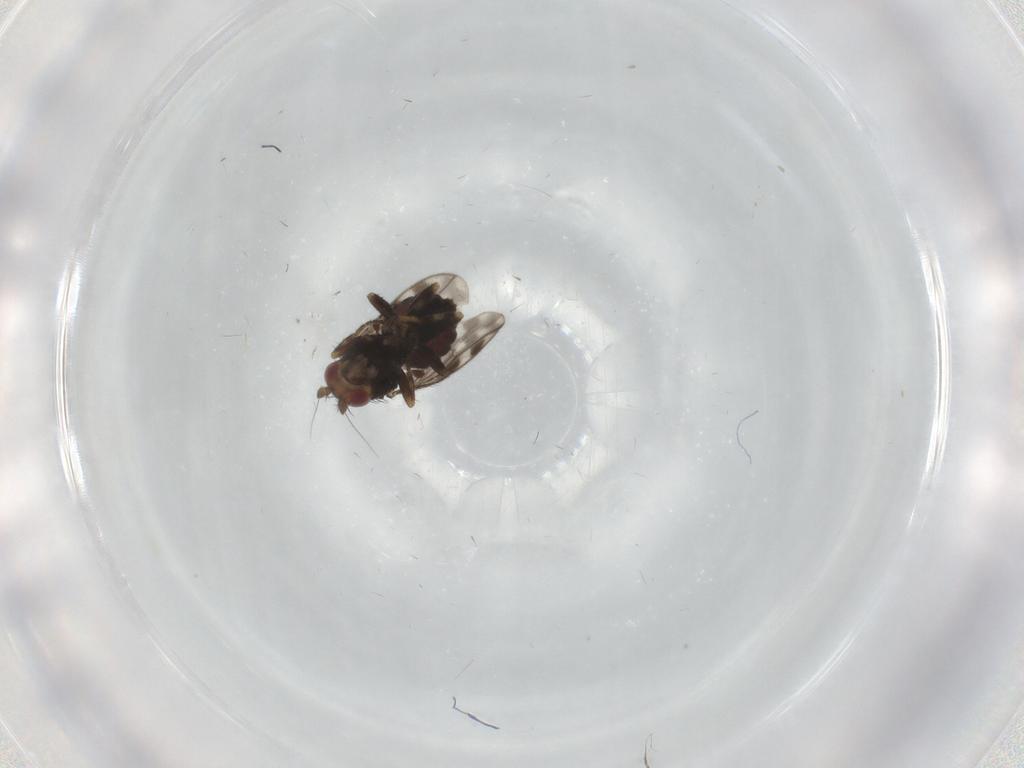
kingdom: Animalia
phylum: Arthropoda
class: Insecta
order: Diptera
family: Sphaeroceridae
